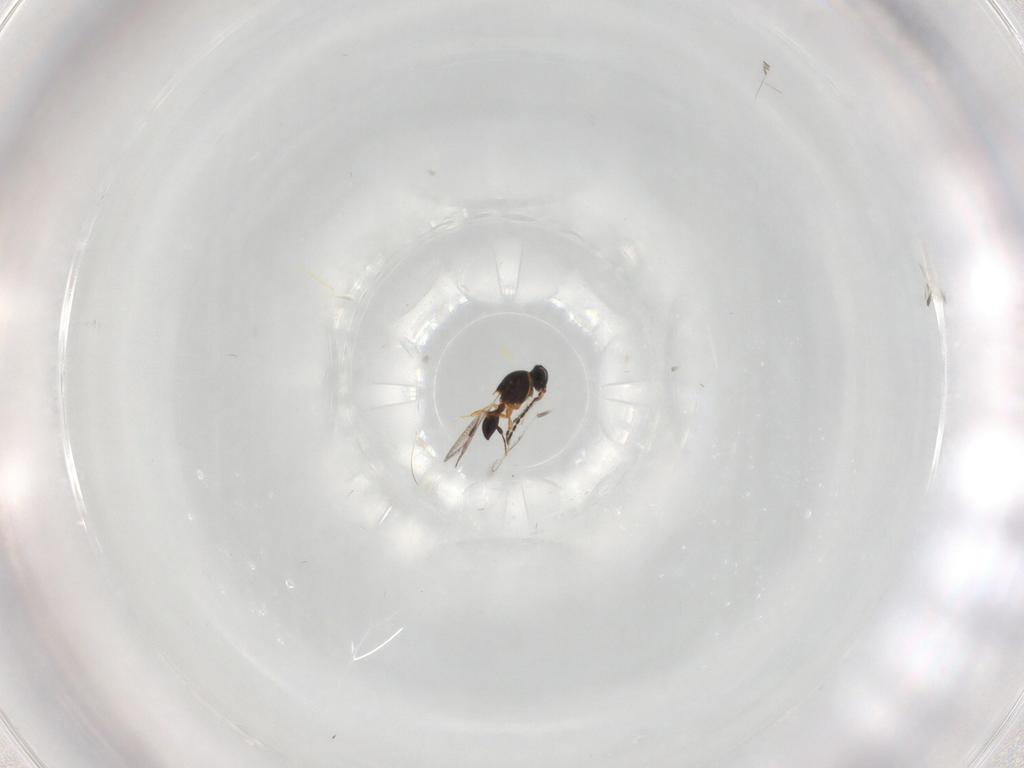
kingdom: Animalia
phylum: Arthropoda
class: Insecta
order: Hymenoptera
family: Platygastridae
